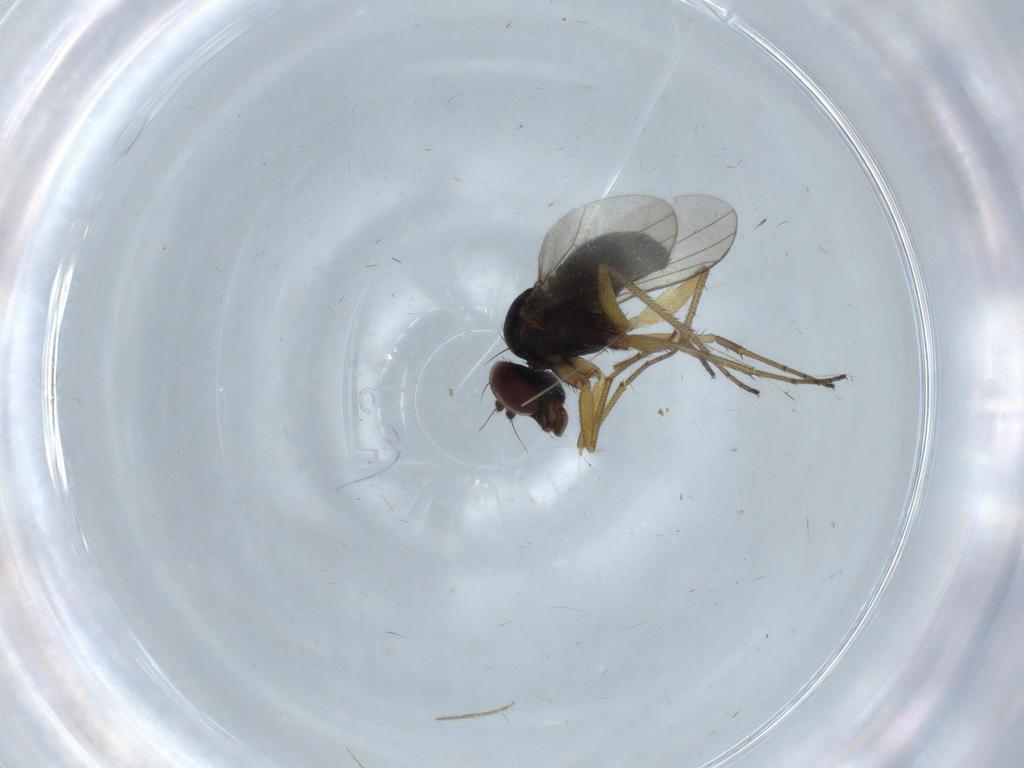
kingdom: Animalia
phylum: Arthropoda
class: Insecta
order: Diptera
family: Dolichopodidae
